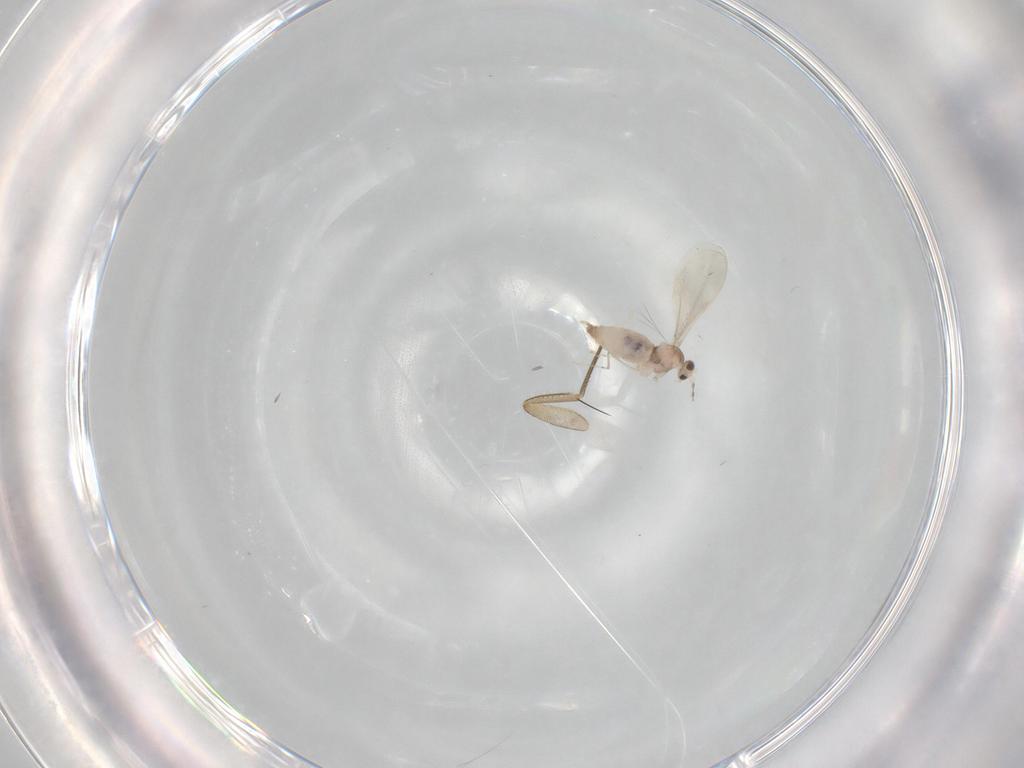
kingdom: Animalia
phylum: Arthropoda
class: Insecta
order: Diptera
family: Cecidomyiidae
